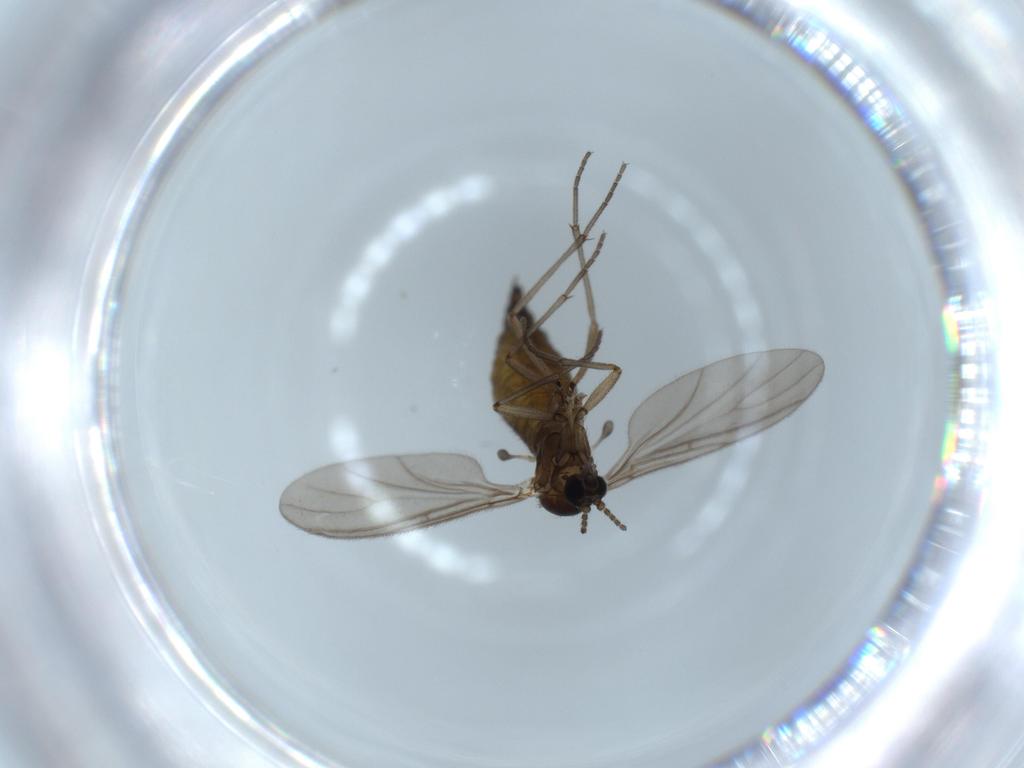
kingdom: Animalia
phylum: Arthropoda
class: Insecta
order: Diptera
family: Sciaridae
